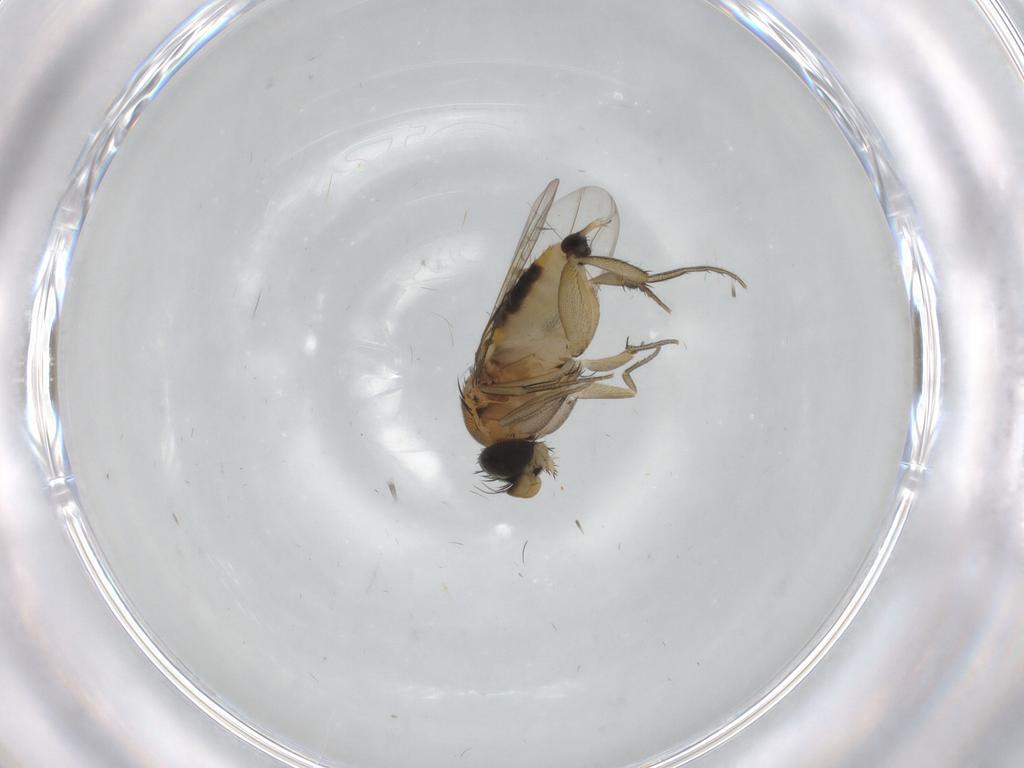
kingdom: Animalia
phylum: Arthropoda
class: Insecta
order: Diptera
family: Phoridae
